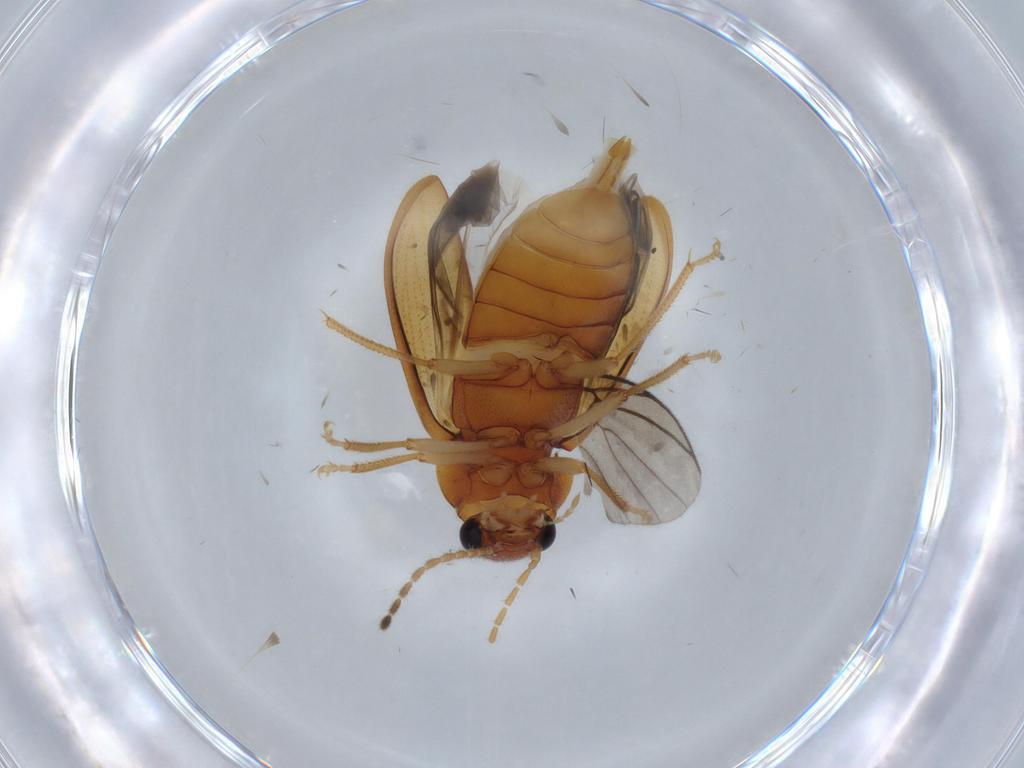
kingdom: Animalia
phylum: Arthropoda
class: Insecta
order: Coleoptera
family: Ptilodactylidae
